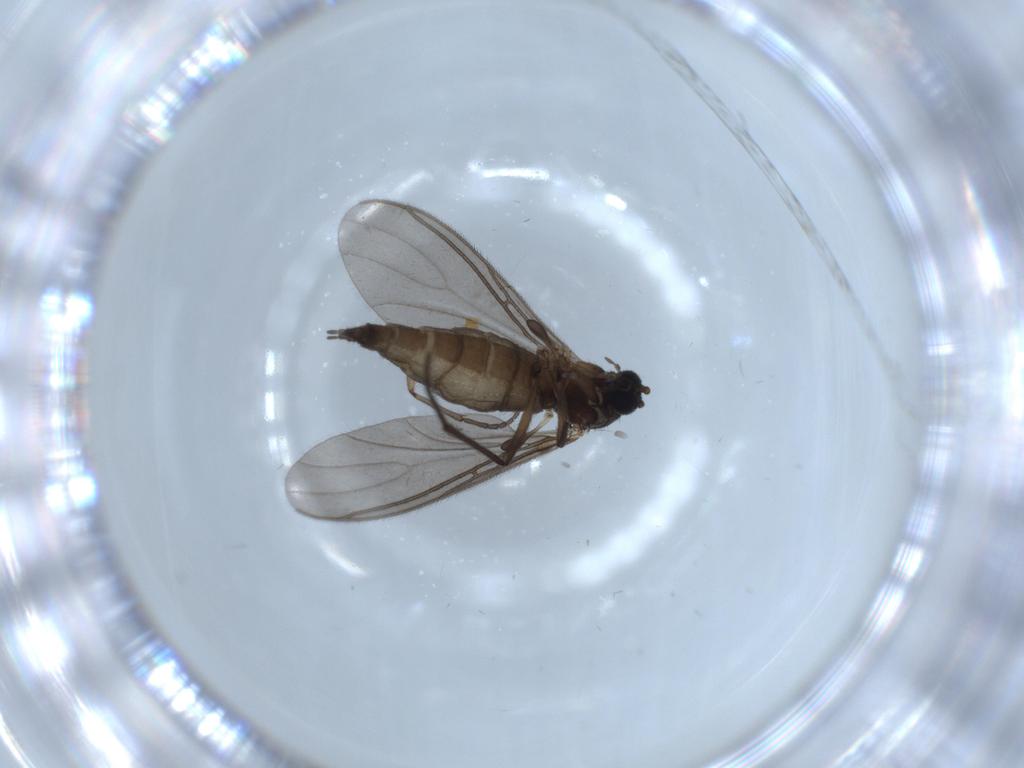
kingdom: Animalia
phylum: Arthropoda
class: Insecta
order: Diptera
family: Sciaridae
